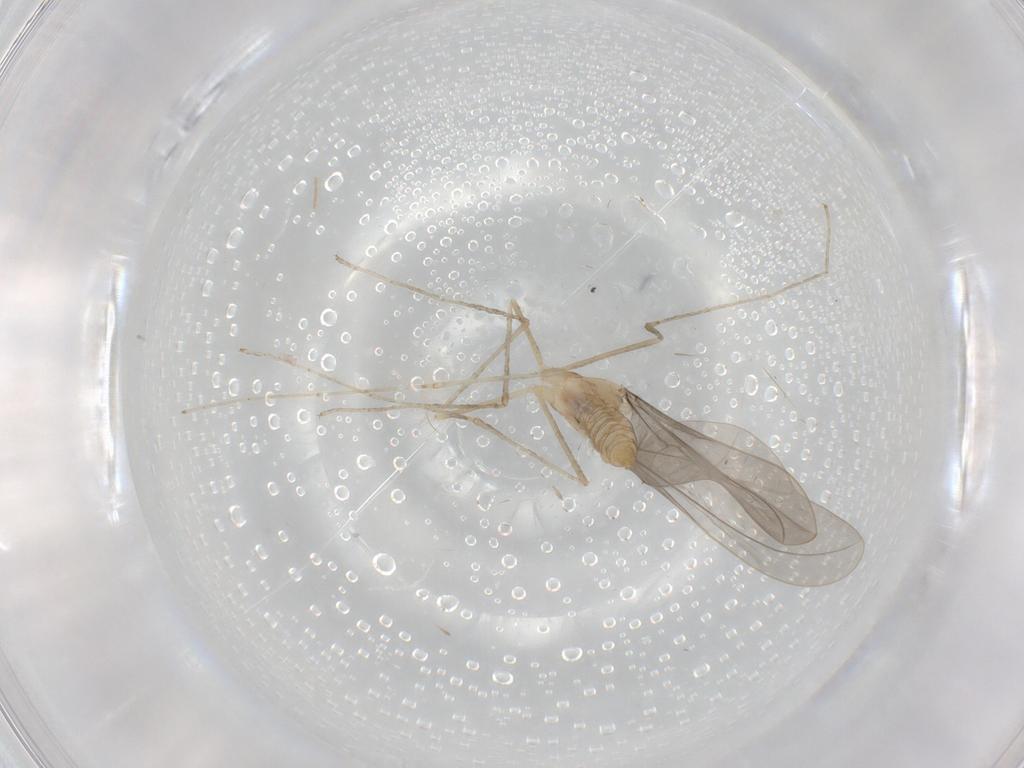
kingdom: Animalia
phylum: Arthropoda
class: Insecta
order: Diptera
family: Cecidomyiidae
